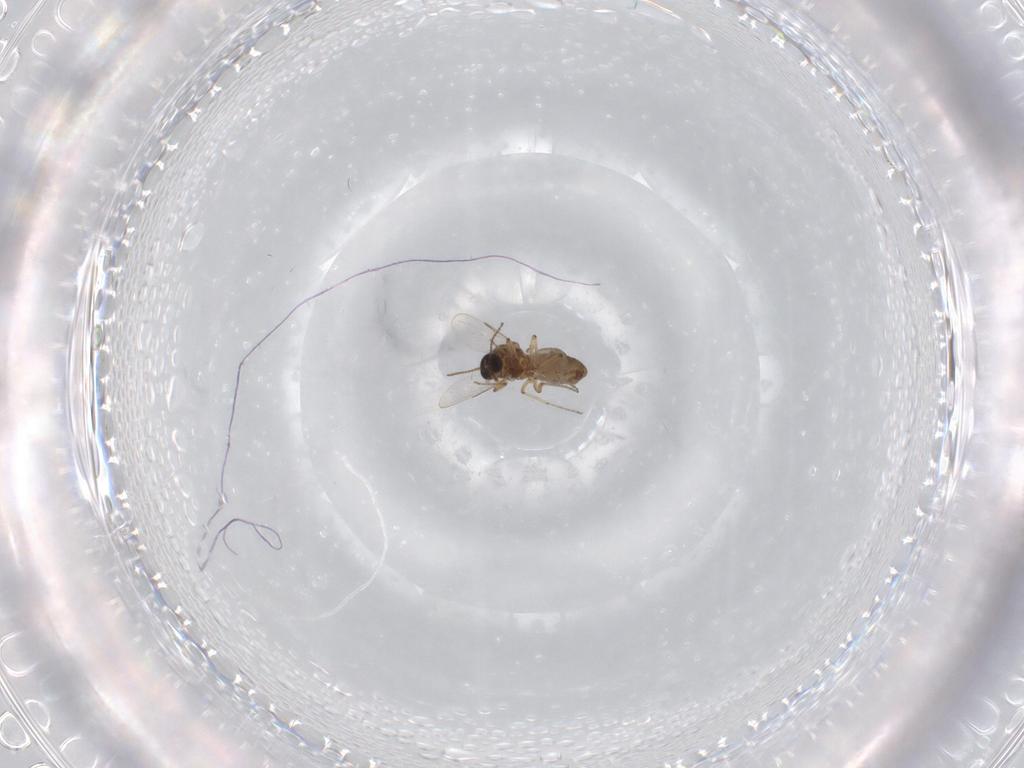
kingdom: Animalia
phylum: Arthropoda
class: Insecta
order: Diptera
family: Ceratopogonidae
